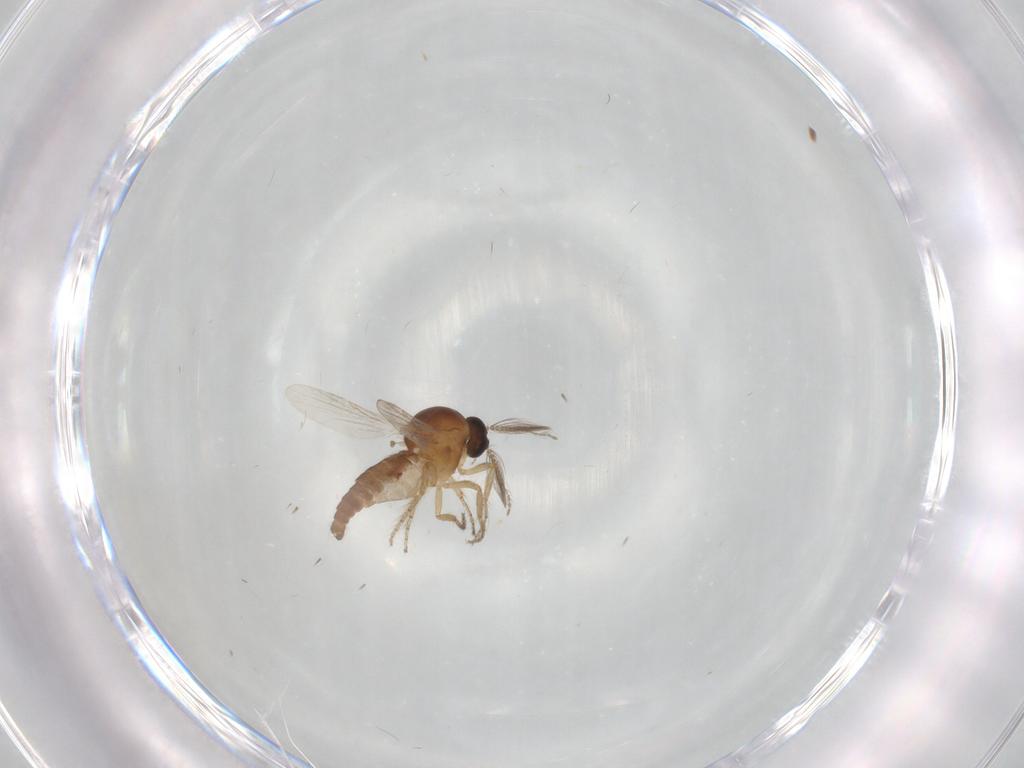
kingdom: Animalia
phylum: Arthropoda
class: Insecta
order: Diptera
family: Ceratopogonidae
